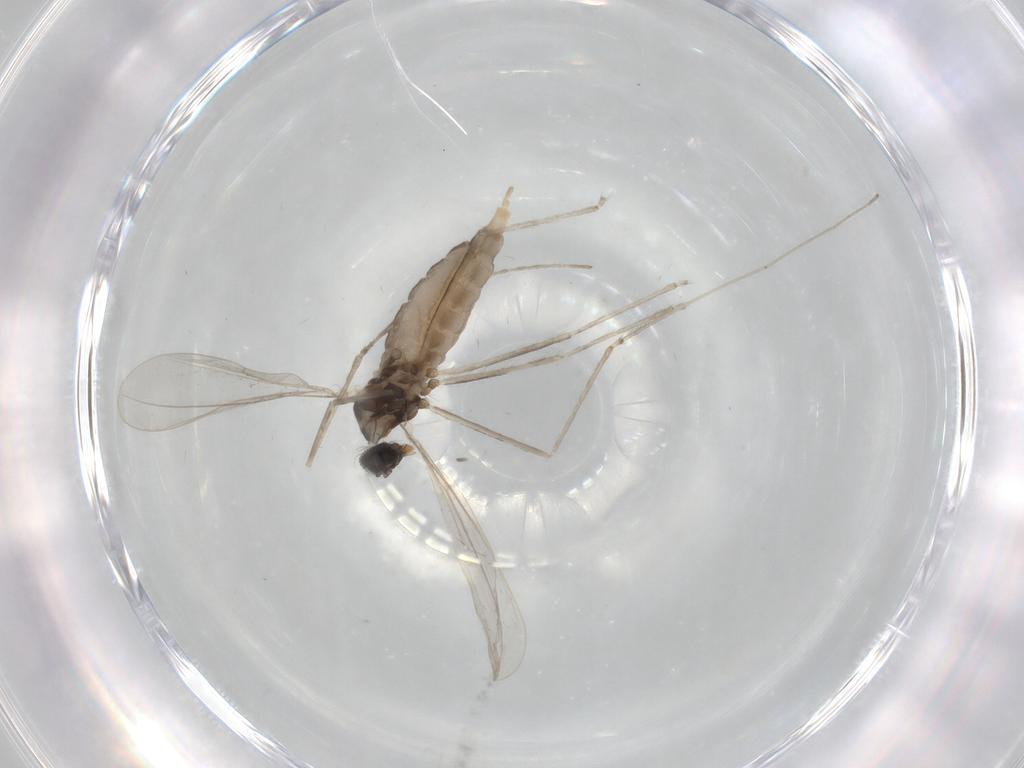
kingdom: Animalia
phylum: Arthropoda
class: Insecta
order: Diptera
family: Cecidomyiidae
